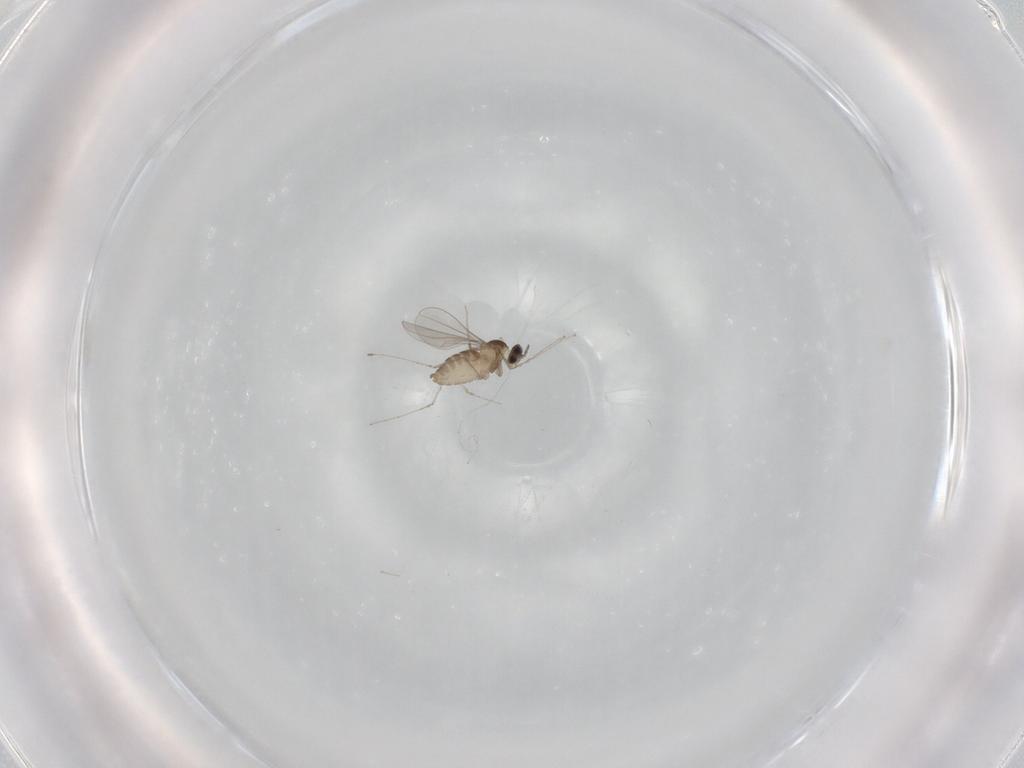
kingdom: Animalia
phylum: Arthropoda
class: Insecta
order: Diptera
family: Cecidomyiidae
